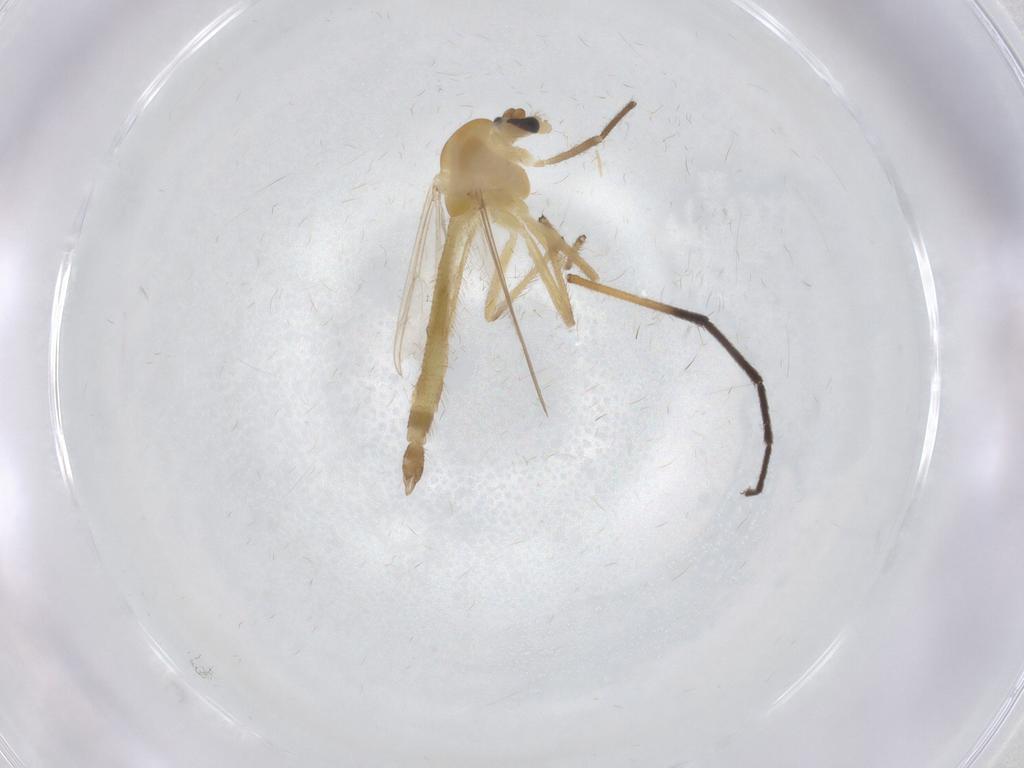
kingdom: Animalia
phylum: Arthropoda
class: Insecta
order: Diptera
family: Chironomidae
